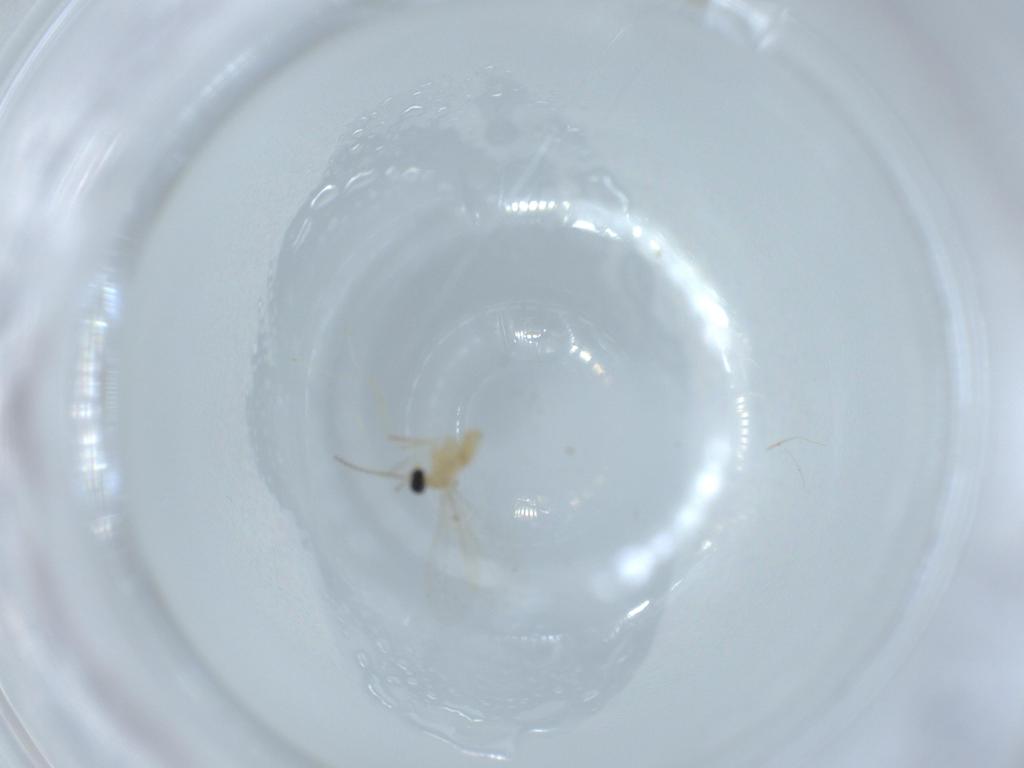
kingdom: Animalia
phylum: Arthropoda
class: Insecta
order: Diptera
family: Cecidomyiidae
